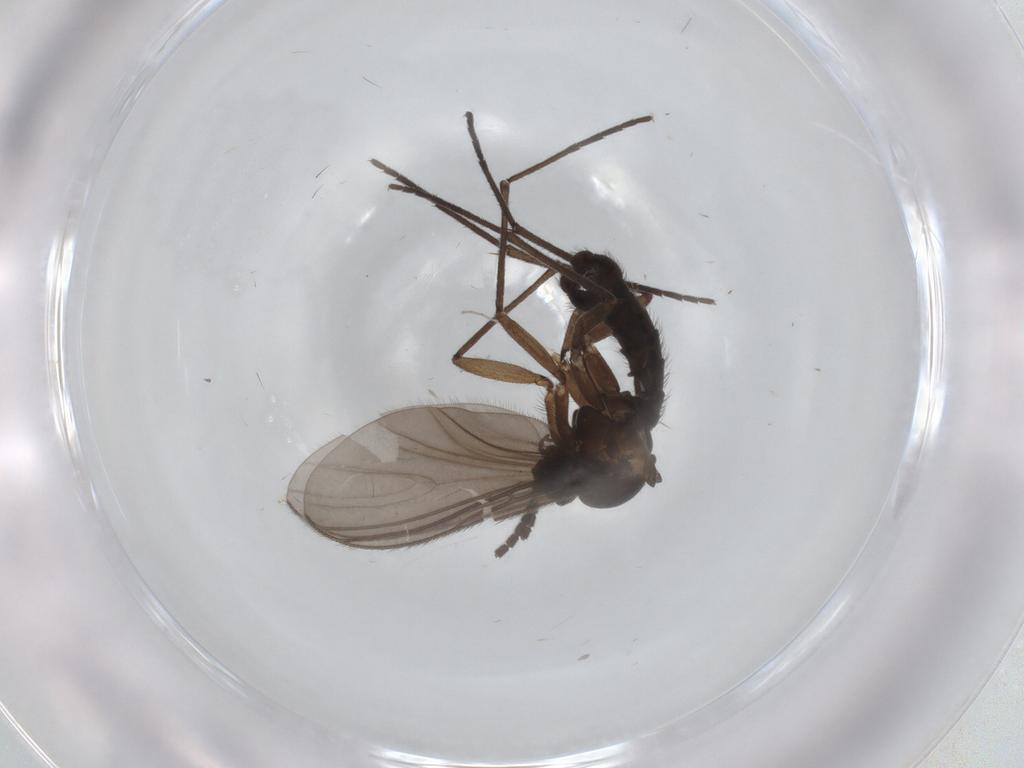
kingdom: Animalia
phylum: Arthropoda
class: Insecta
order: Diptera
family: Sciaridae
